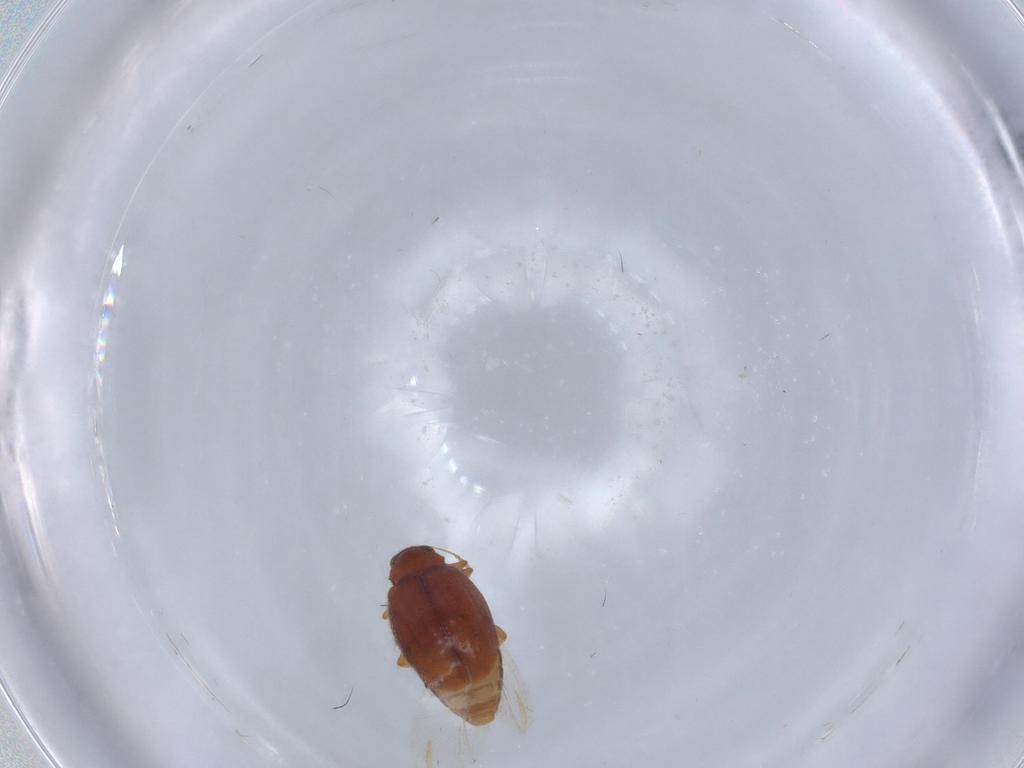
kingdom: Animalia
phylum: Arthropoda
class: Insecta
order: Coleoptera
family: Latridiidae
